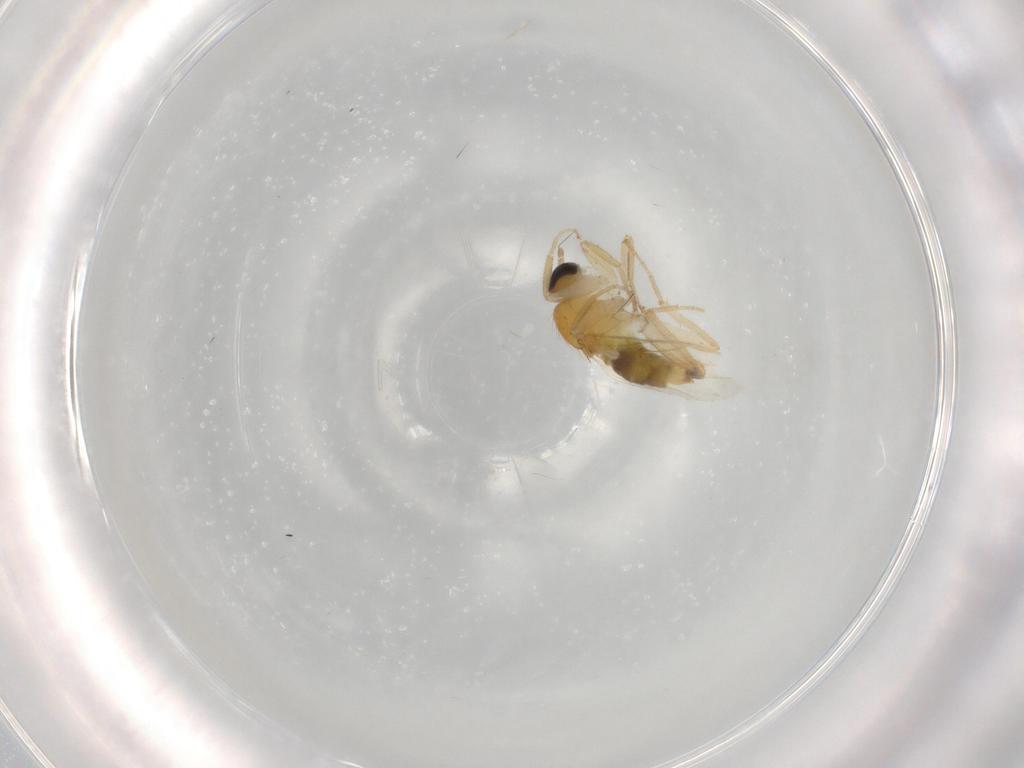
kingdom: Animalia
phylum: Arthropoda
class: Insecta
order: Diptera
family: Hybotidae
